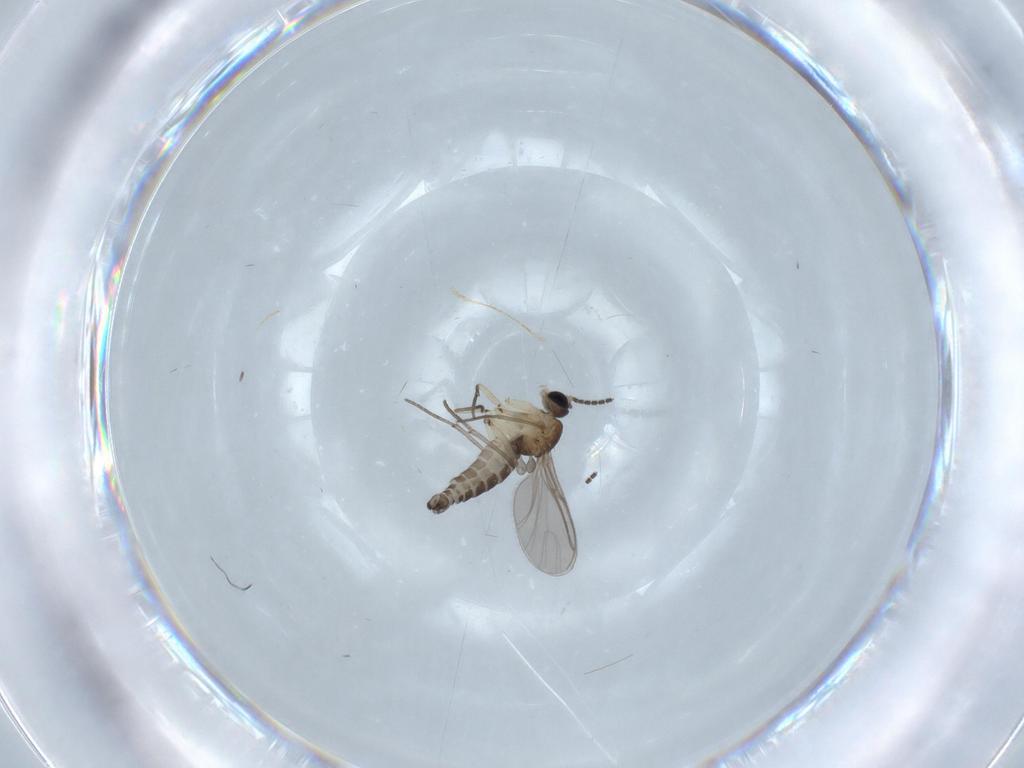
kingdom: Animalia
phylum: Arthropoda
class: Insecta
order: Diptera
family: Sciaridae
